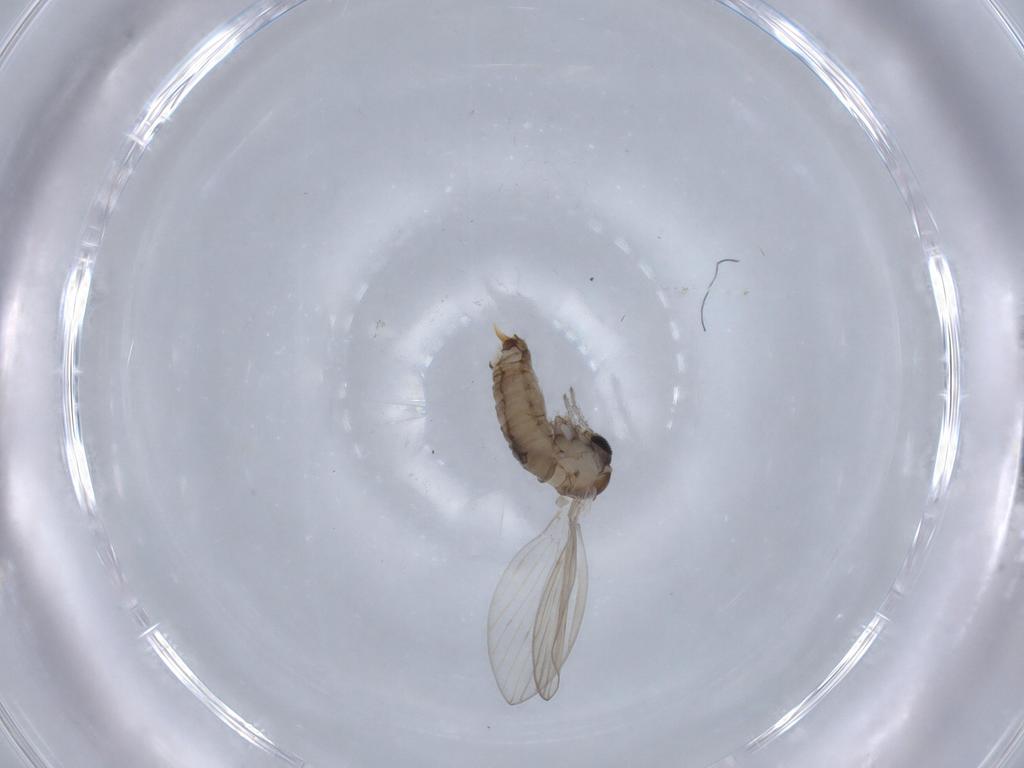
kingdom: Animalia
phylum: Arthropoda
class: Insecta
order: Diptera
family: Psychodidae
